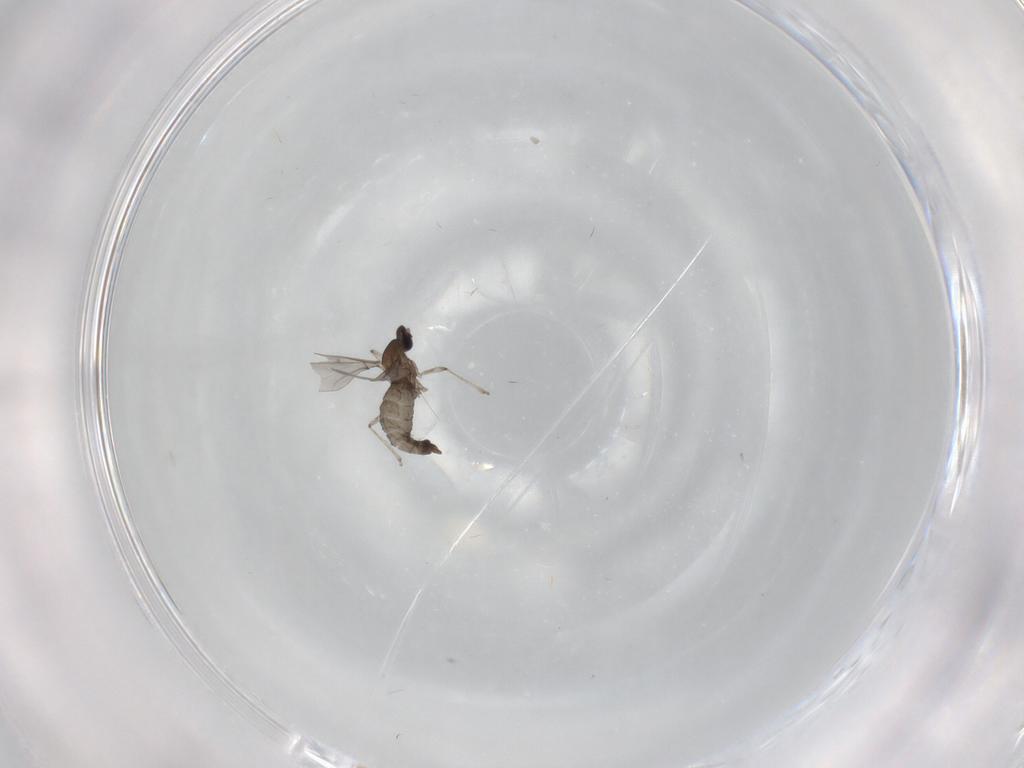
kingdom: Animalia
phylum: Arthropoda
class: Insecta
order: Diptera
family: Cecidomyiidae
